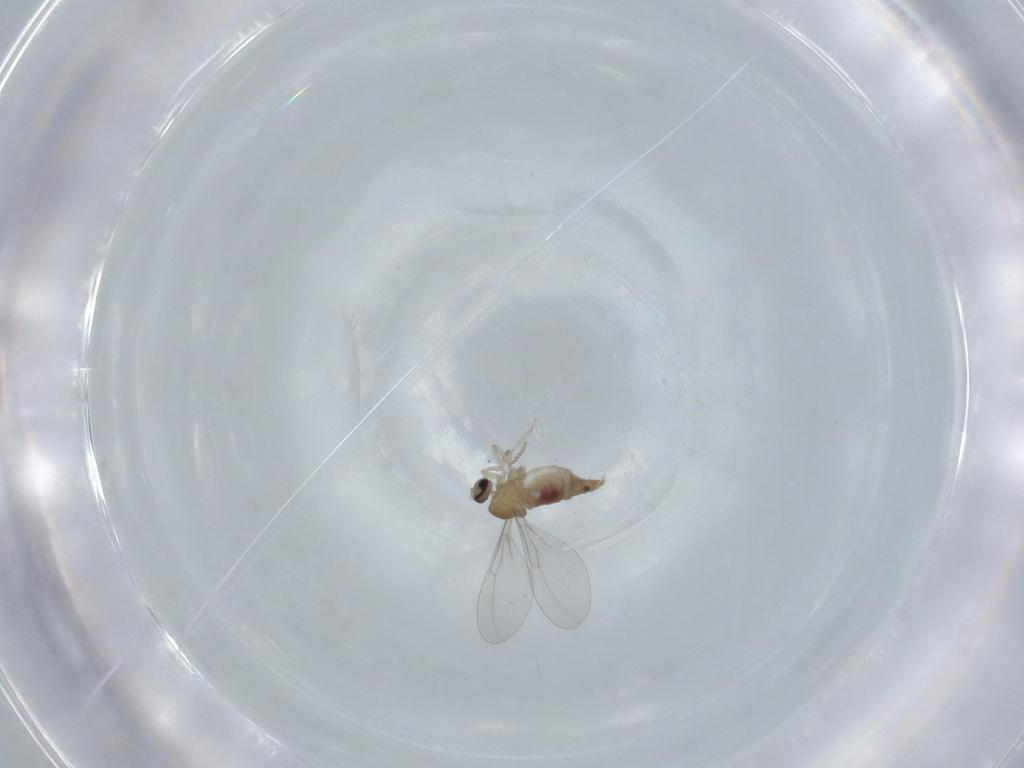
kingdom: Animalia
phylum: Arthropoda
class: Insecta
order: Diptera
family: Cecidomyiidae
